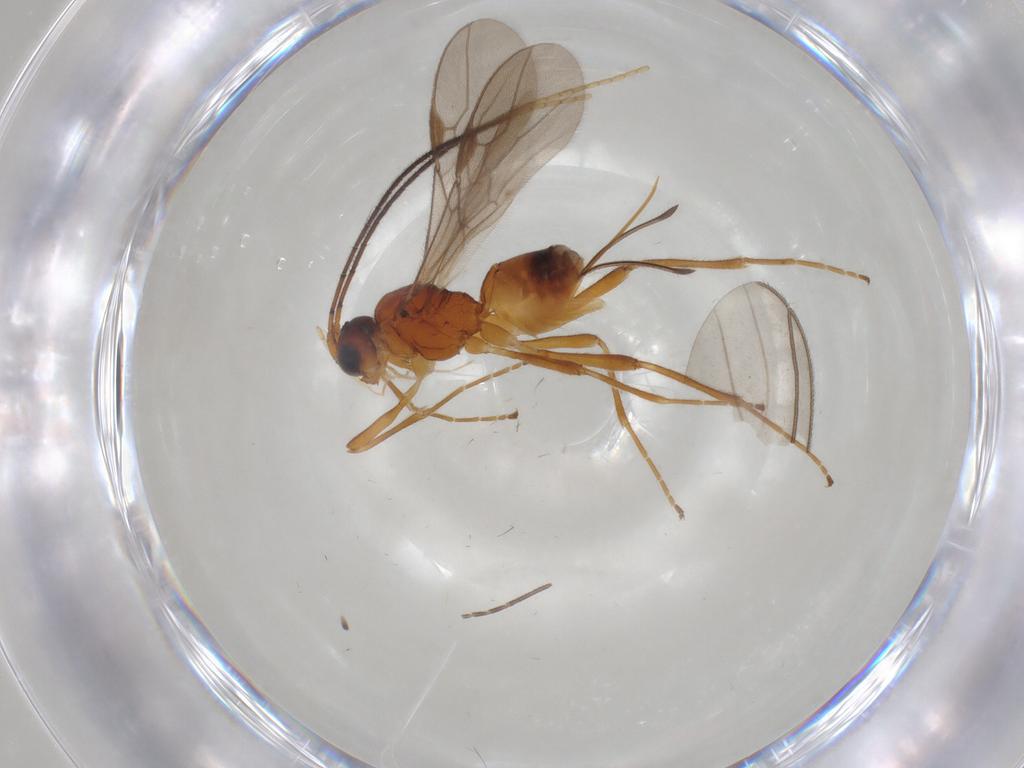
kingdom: Animalia
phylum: Arthropoda
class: Insecta
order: Hymenoptera
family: Braconidae
